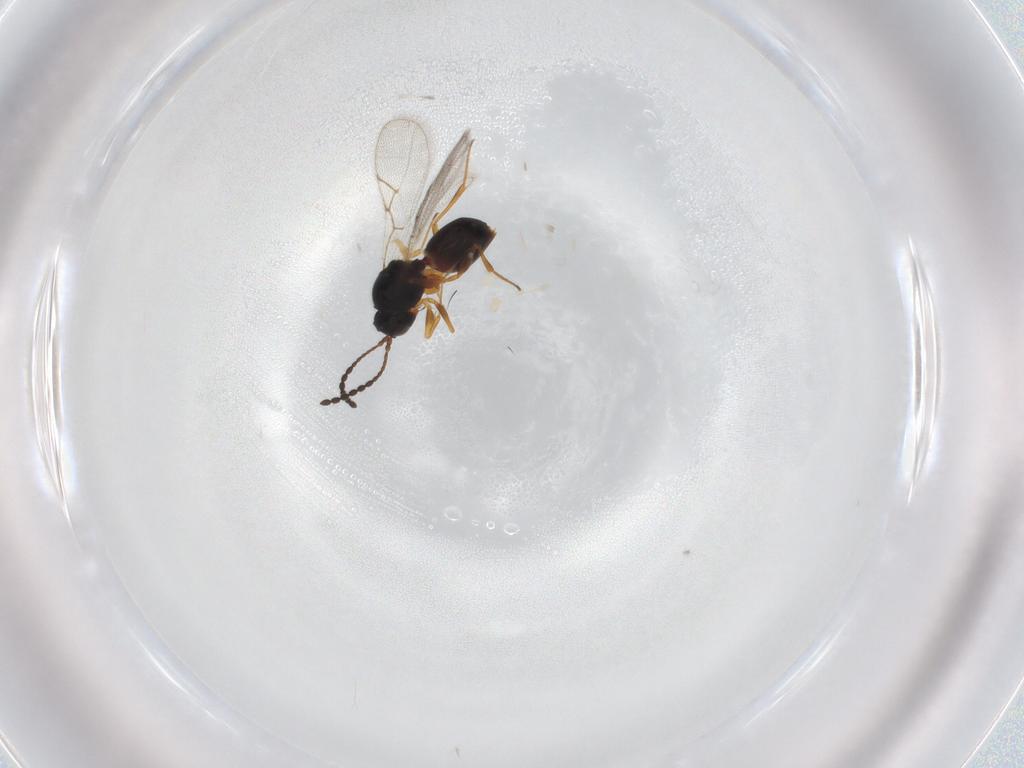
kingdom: Animalia
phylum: Arthropoda
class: Insecta
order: Hymenoptera
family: Figitidae
